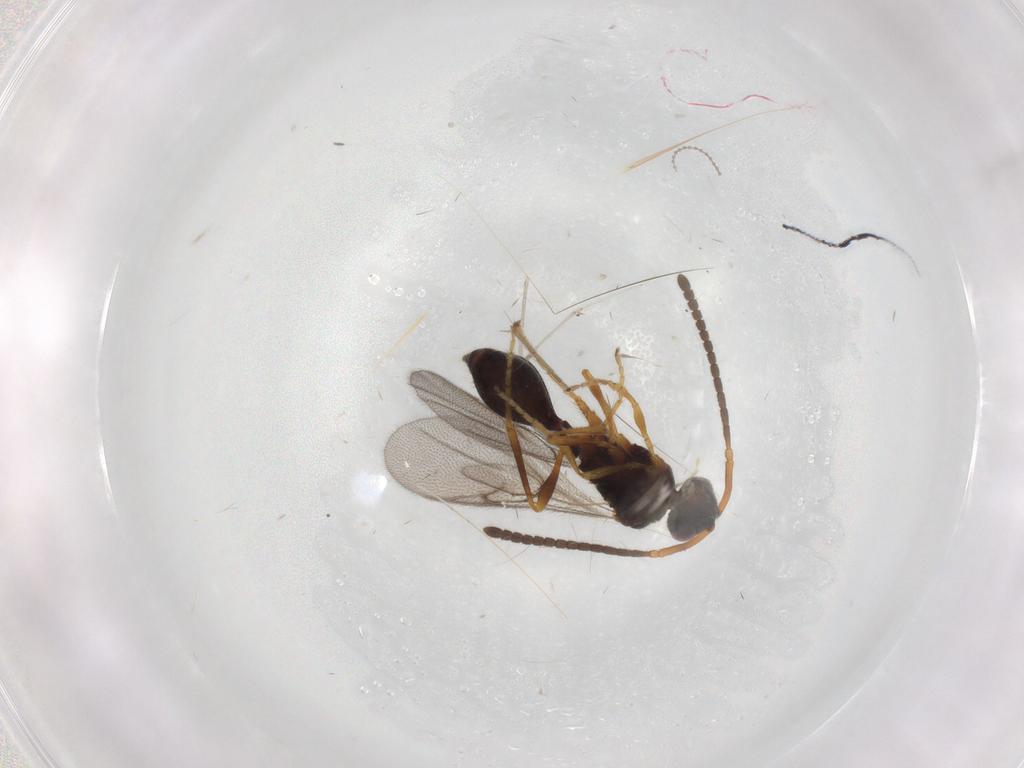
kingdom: Animalia
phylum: Arthropoda
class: Insecta
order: Hymenoptera
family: Diapriidae
